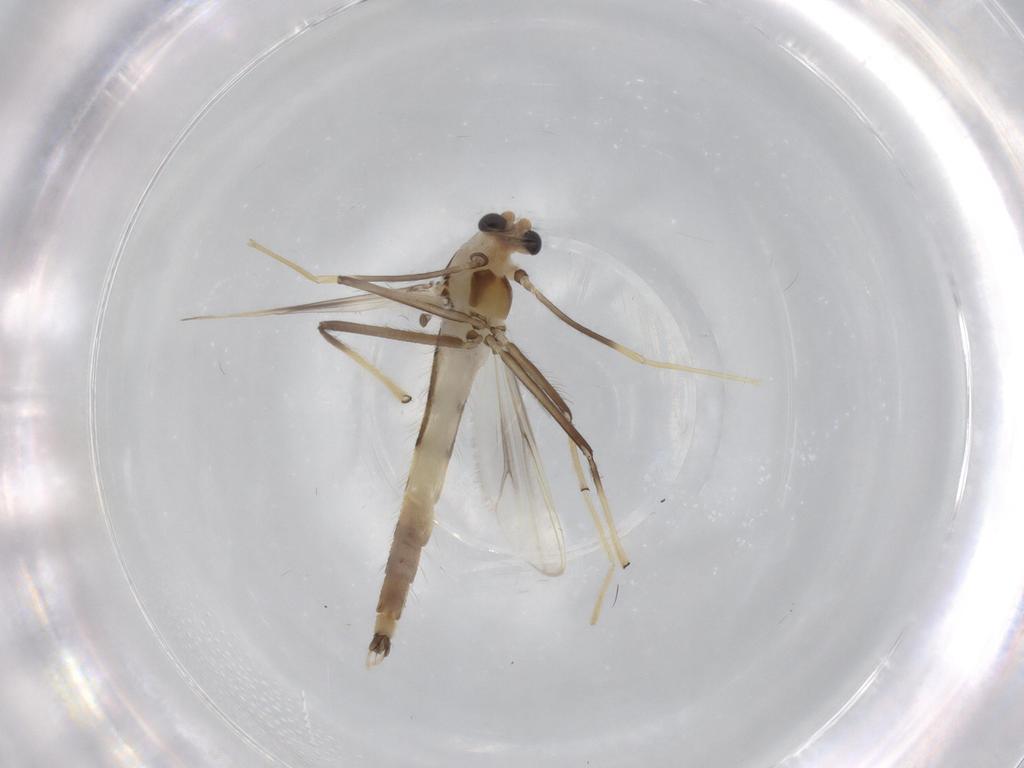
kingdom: Animalia
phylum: Arthropoda
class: Insecta
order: Diptera
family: Chironomidae
